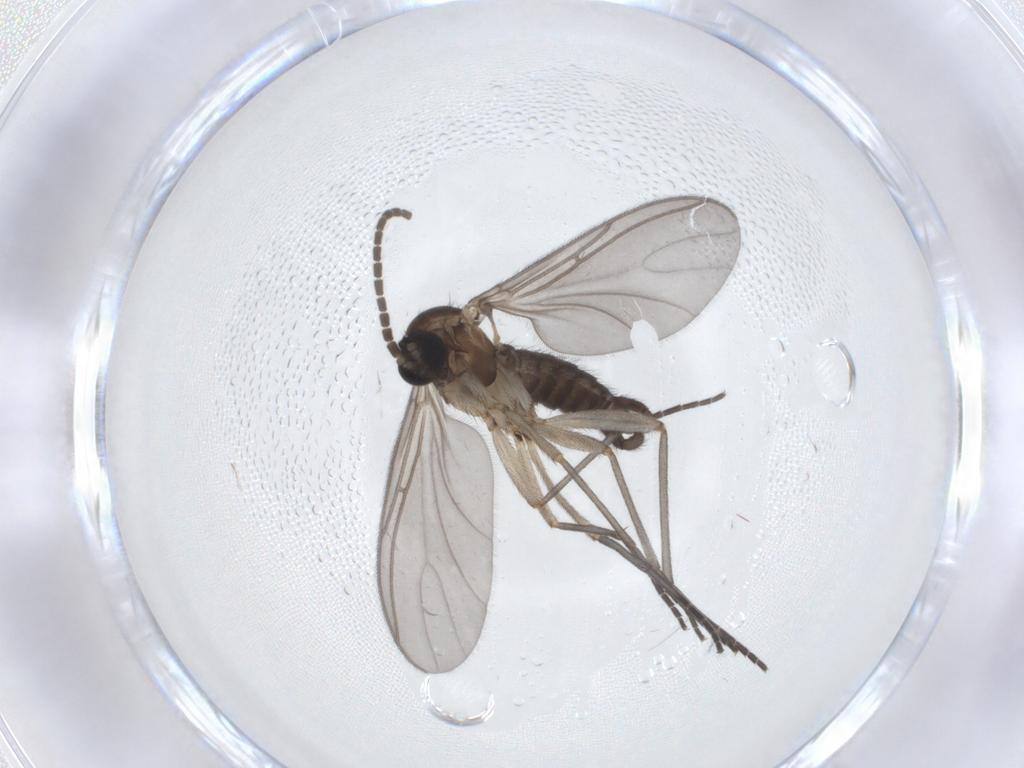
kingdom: Animalia
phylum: Arthropoda
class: Insecta
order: Diptera
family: Sciaridae
